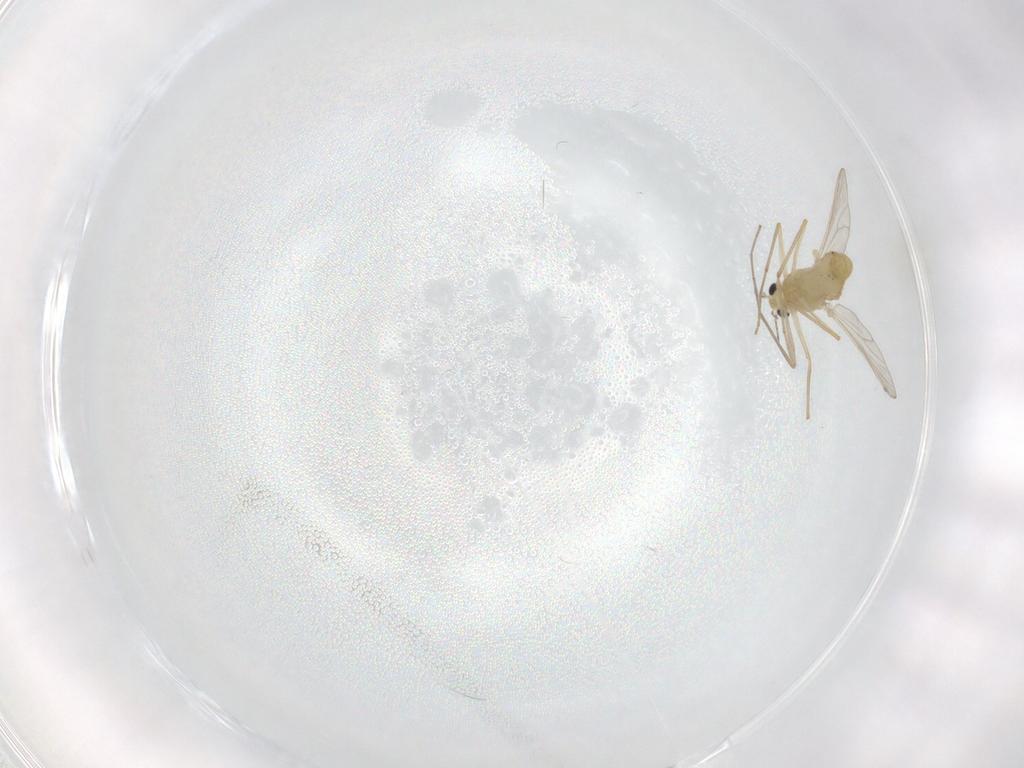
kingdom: Animalia
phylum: Arthropoda
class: Insecta
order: Diptera
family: Chironomidae
